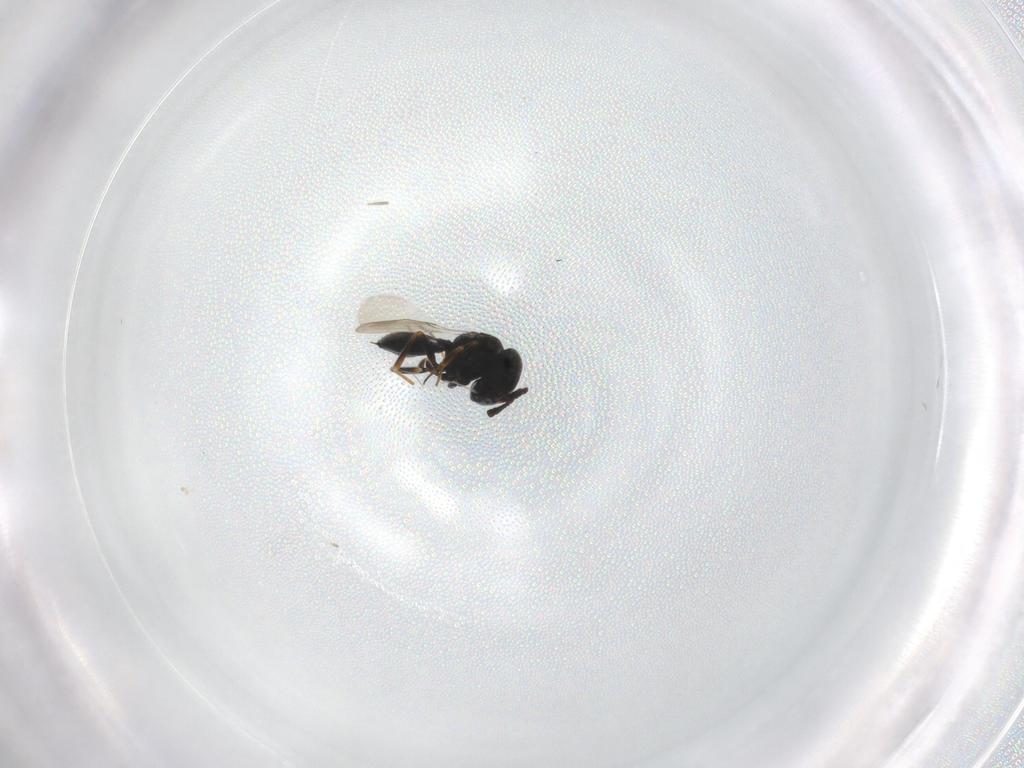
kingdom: Animalia
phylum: Arthropoda
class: Insecta
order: Hymenoptera
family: Scelionidae
